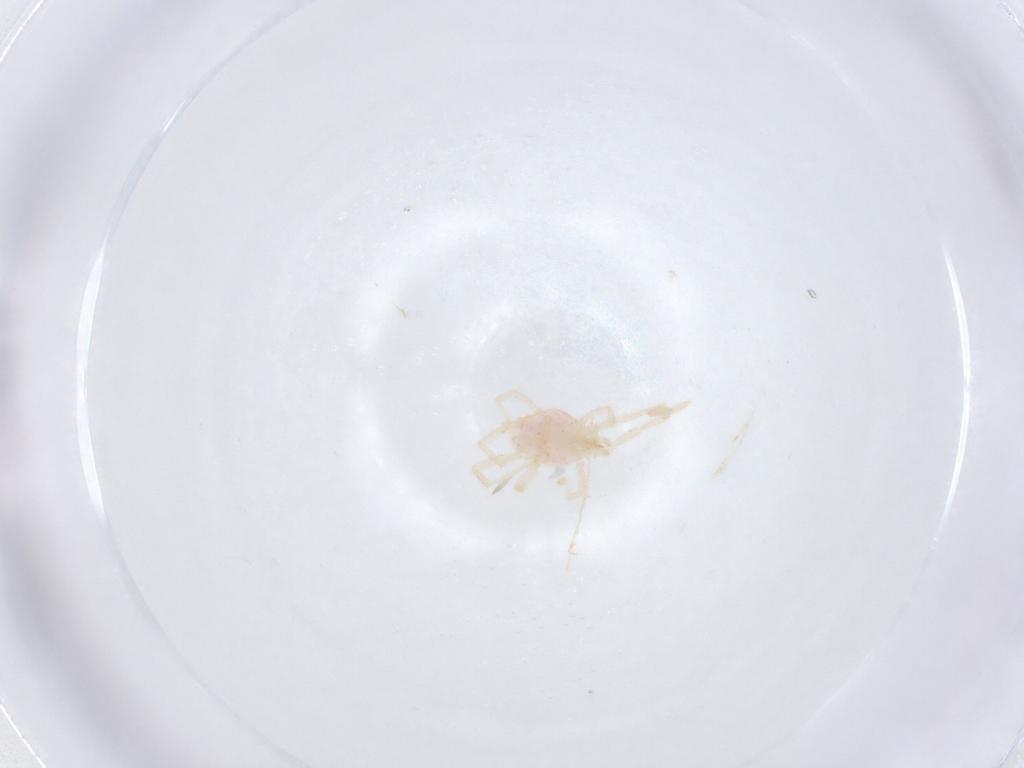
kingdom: Animalia
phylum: Arthropoda
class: Arachnida
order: Trombidiformes
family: Erythraeidae
